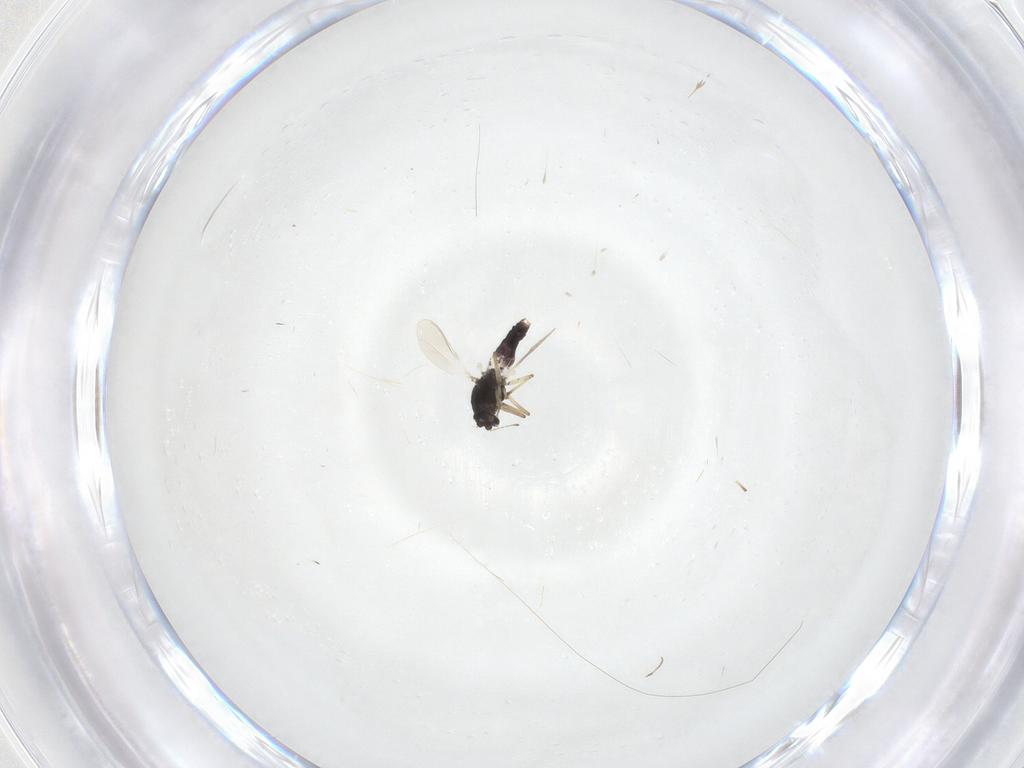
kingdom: Animalia
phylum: Arthropoda
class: Insecta
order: Diptera
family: Chironomidae
